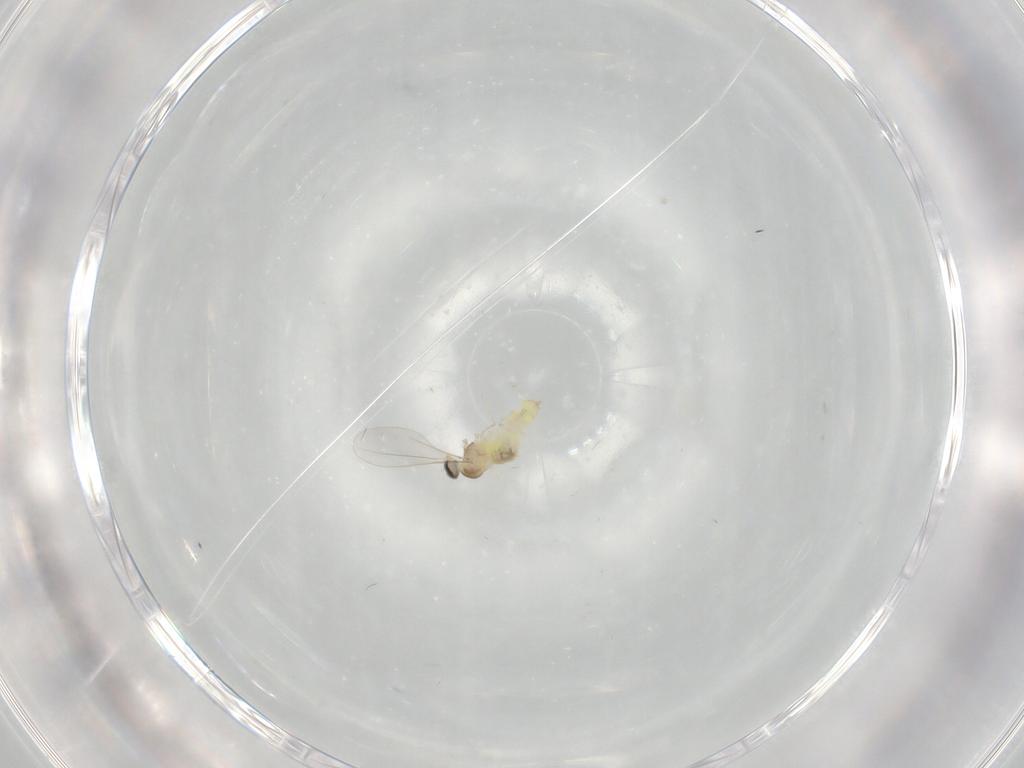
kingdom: Animalia
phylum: Arthropoda
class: Insecta
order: Diptera
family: Cecidomyiidae
